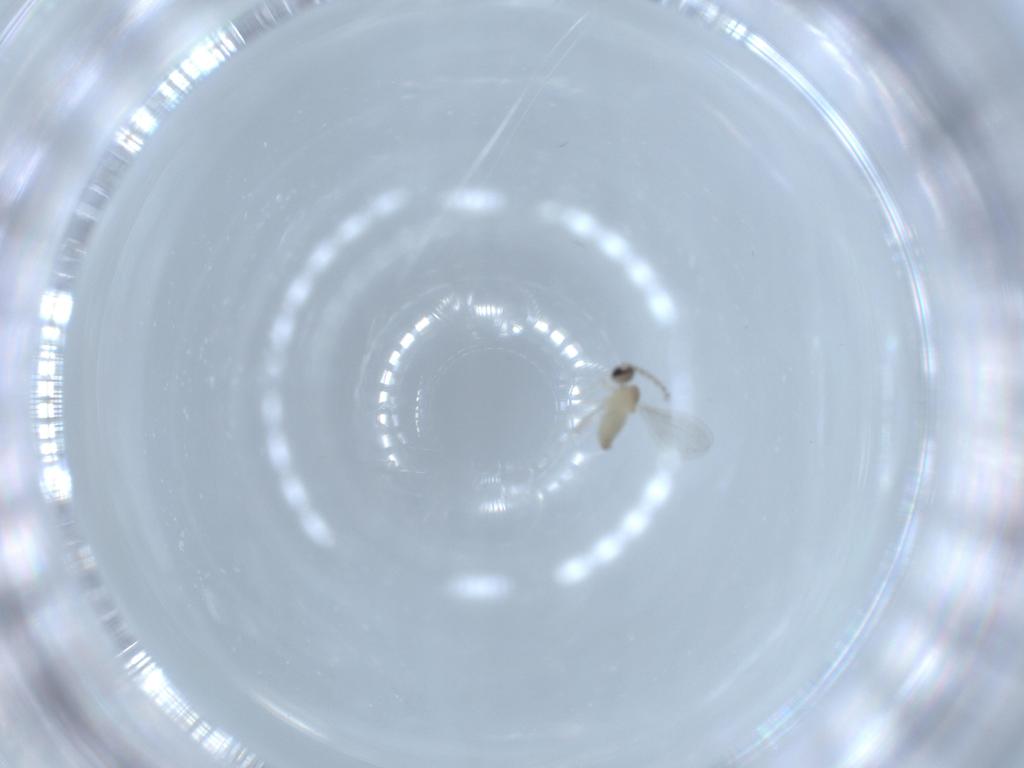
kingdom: Animalia
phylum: Arthropoda
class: Insecta
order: Diptera
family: Cecidomyiidae
